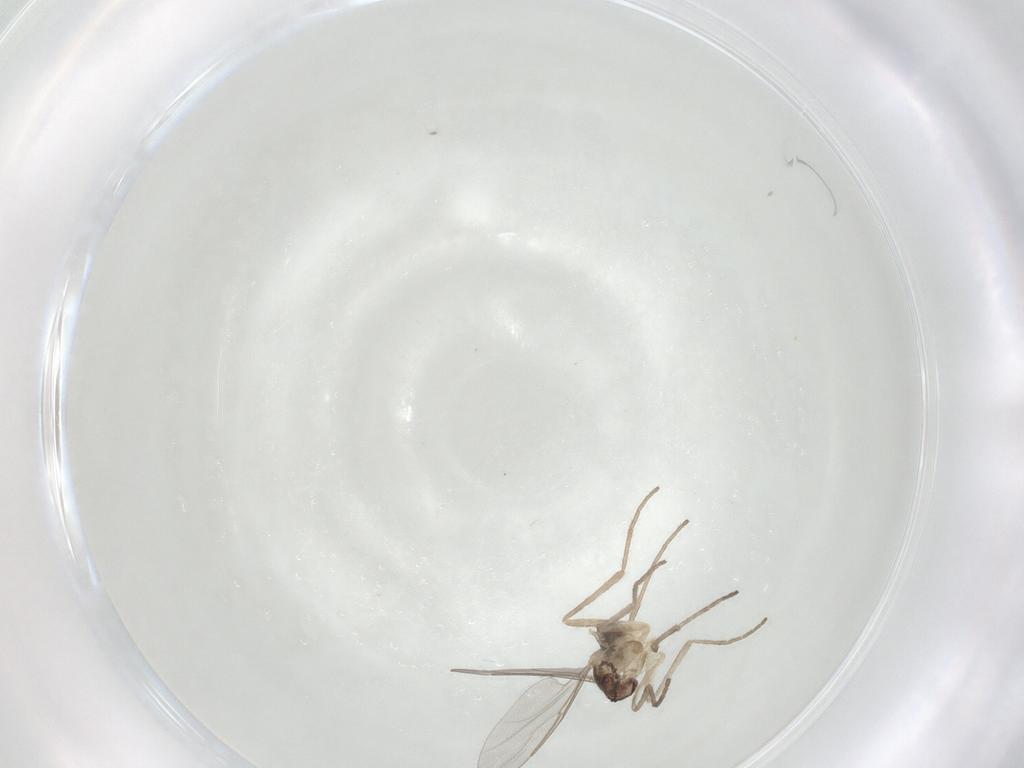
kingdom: Animalia
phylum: Arthropoda
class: Insecta
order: Diptera
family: Cecidomyiidae
